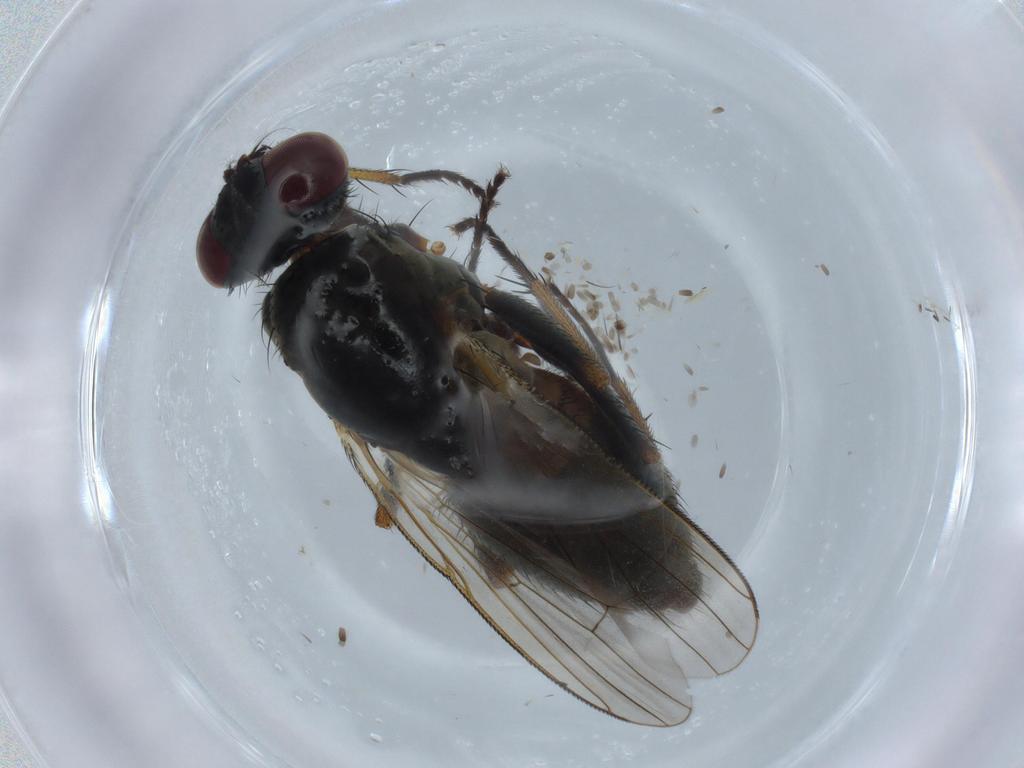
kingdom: Animalia
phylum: Arthropoda
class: Insecta
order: Diptera
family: Muscidae
